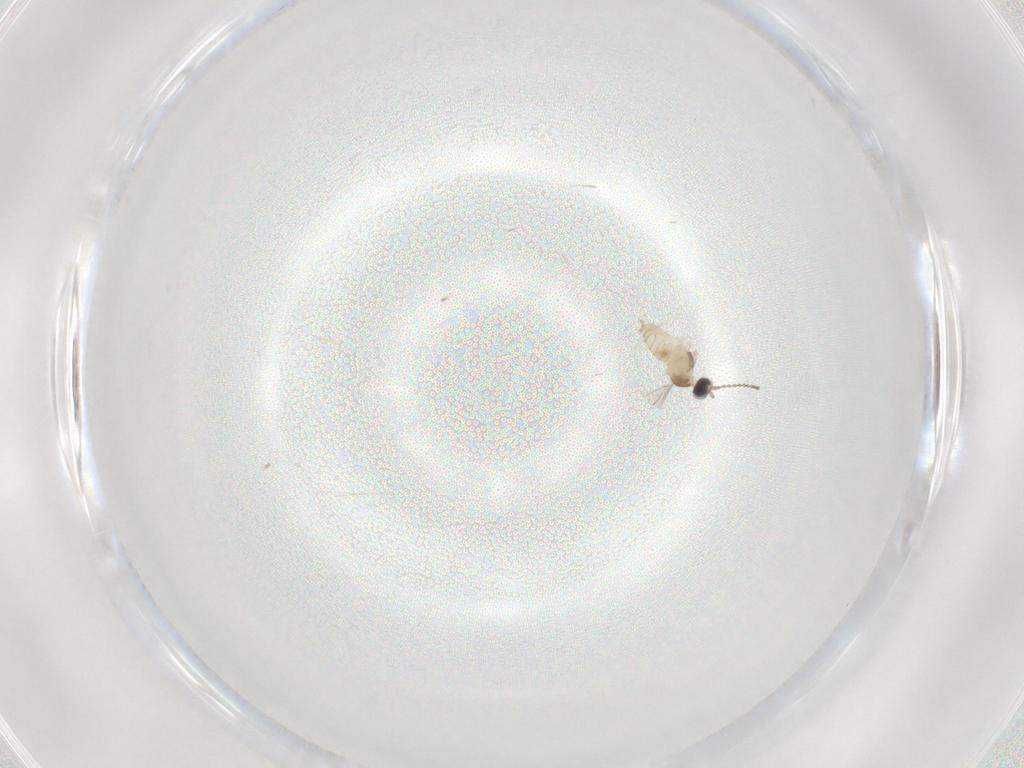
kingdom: Animalia
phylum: Arthropoda
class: Insecta
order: Diptera
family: Cecidomyiidae
